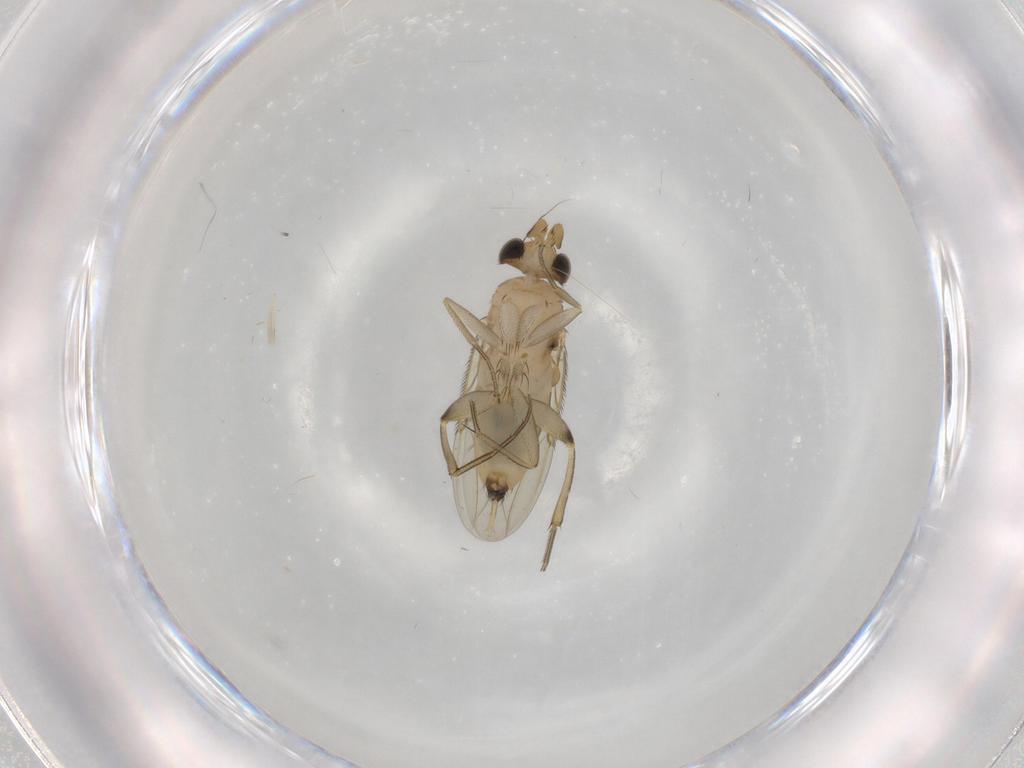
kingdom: Animalia
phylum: Arthropoda
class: Insecta
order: Diptera
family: Phoridae
